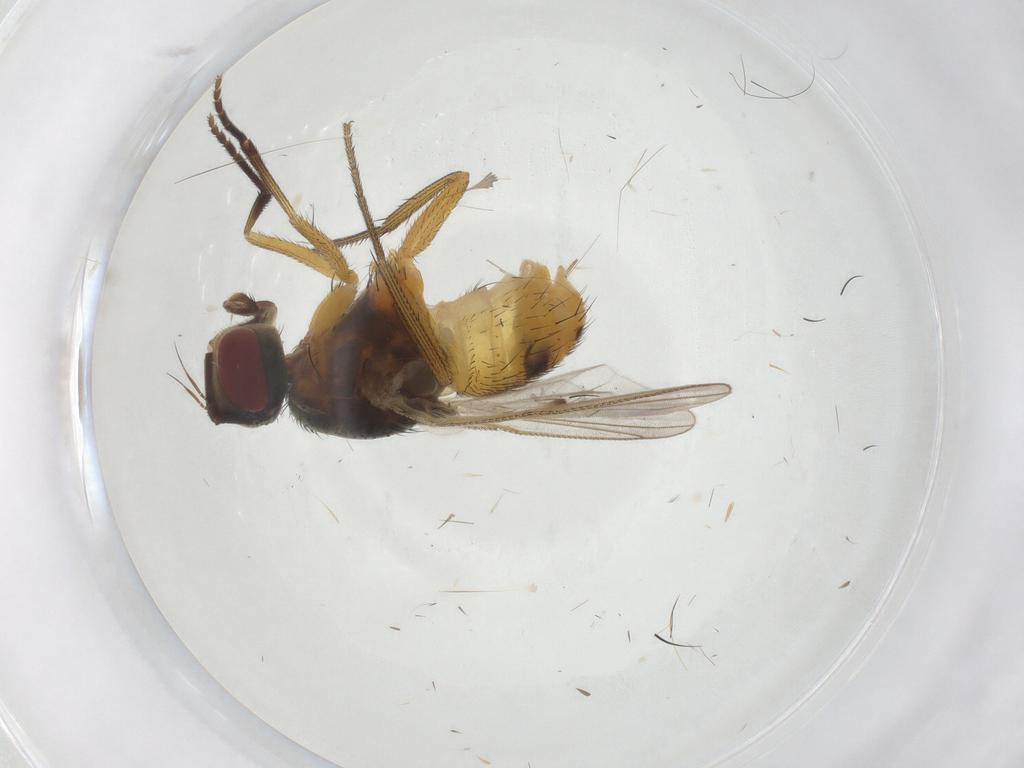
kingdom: Animalia
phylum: Arthropoda
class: Insecta
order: Diptera
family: Muscidae
